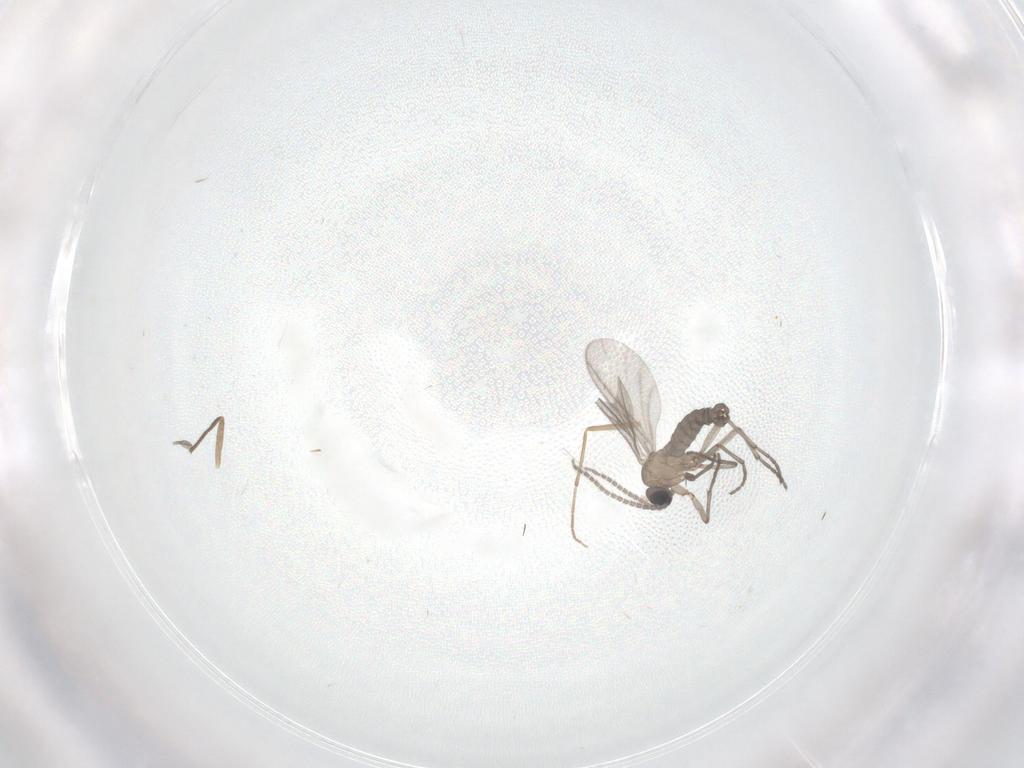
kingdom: Animalia
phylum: Arthropoda
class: Insecta
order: Diptera
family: Sciaridae
